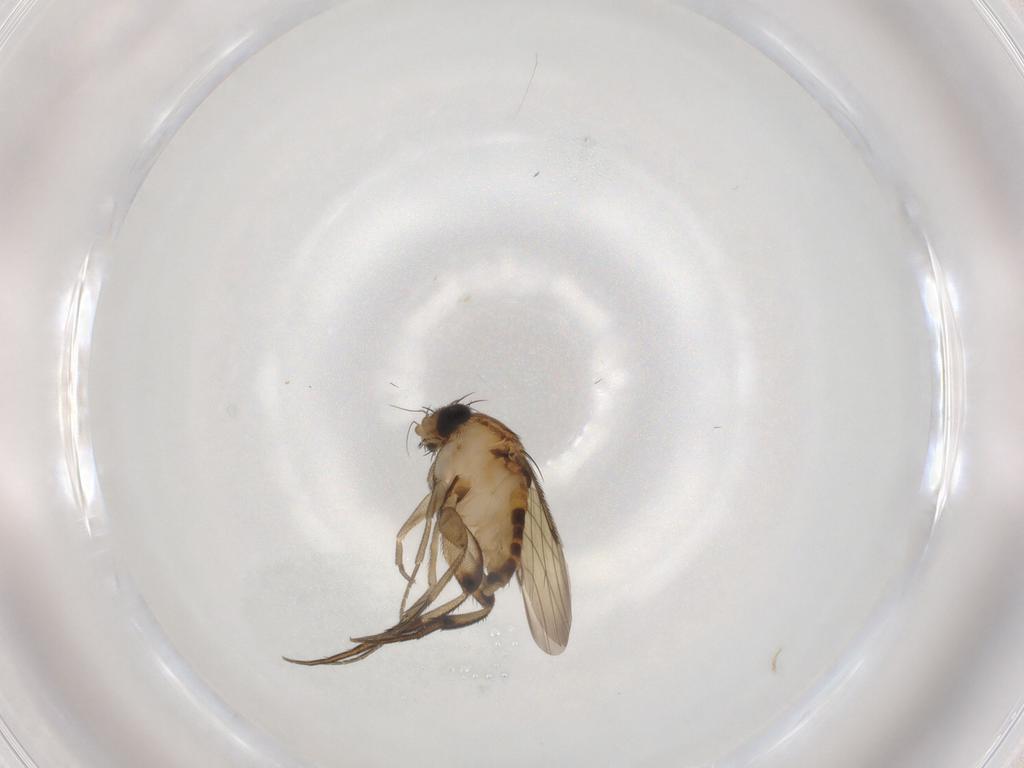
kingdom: Animalia
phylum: Arthropoda
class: Insecta
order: Diptera
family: Phoridae
